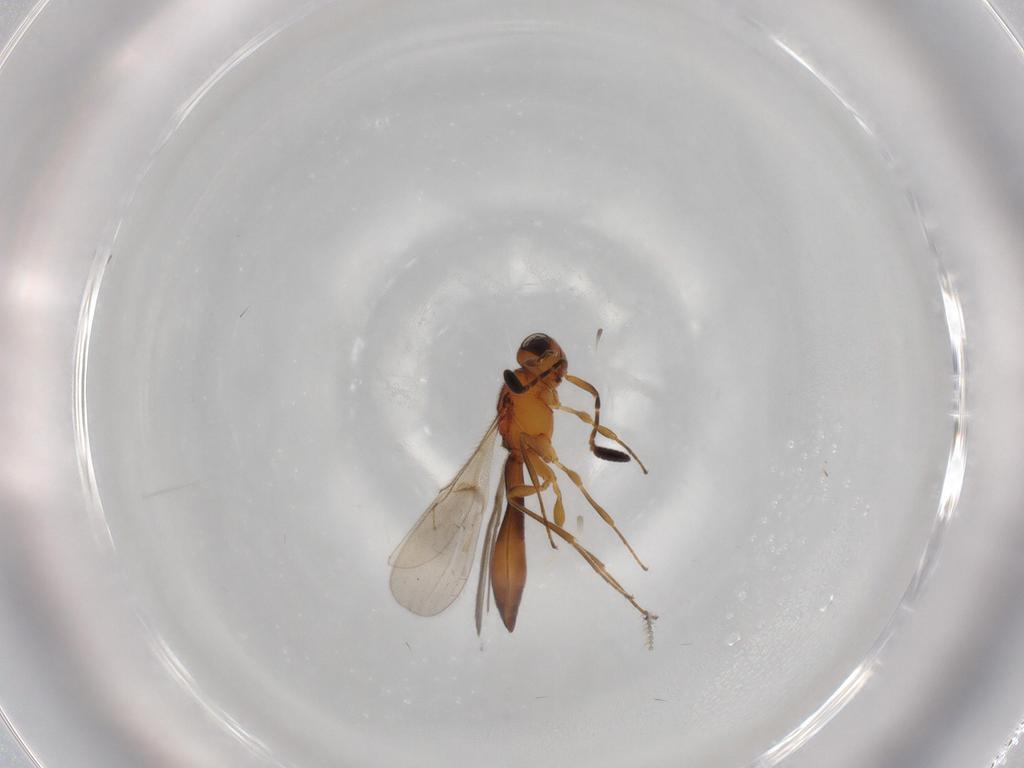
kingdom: Animalia
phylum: Arthropoda
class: Insecta
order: Hymenoptera
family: Scelionidae
